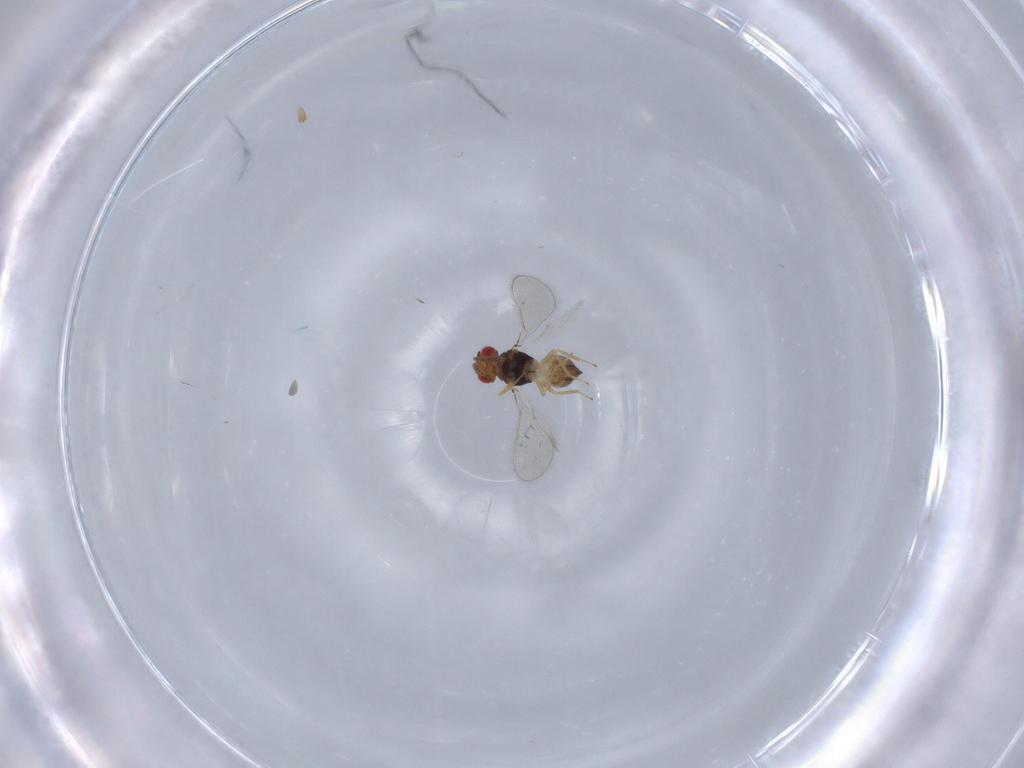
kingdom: Animalia
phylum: Arthropoda
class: Insecta
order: Hymenoptera
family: Eulophidae
